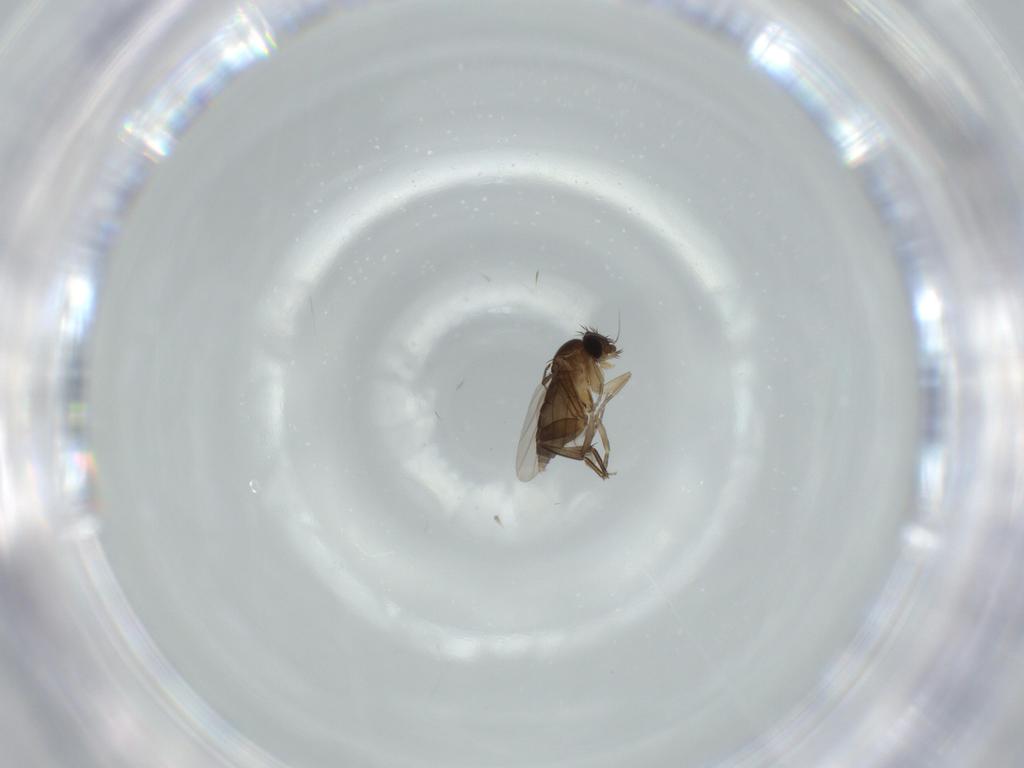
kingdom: Animalia
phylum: Arthropoda
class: Insecta
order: Diptera
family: Phoridae
